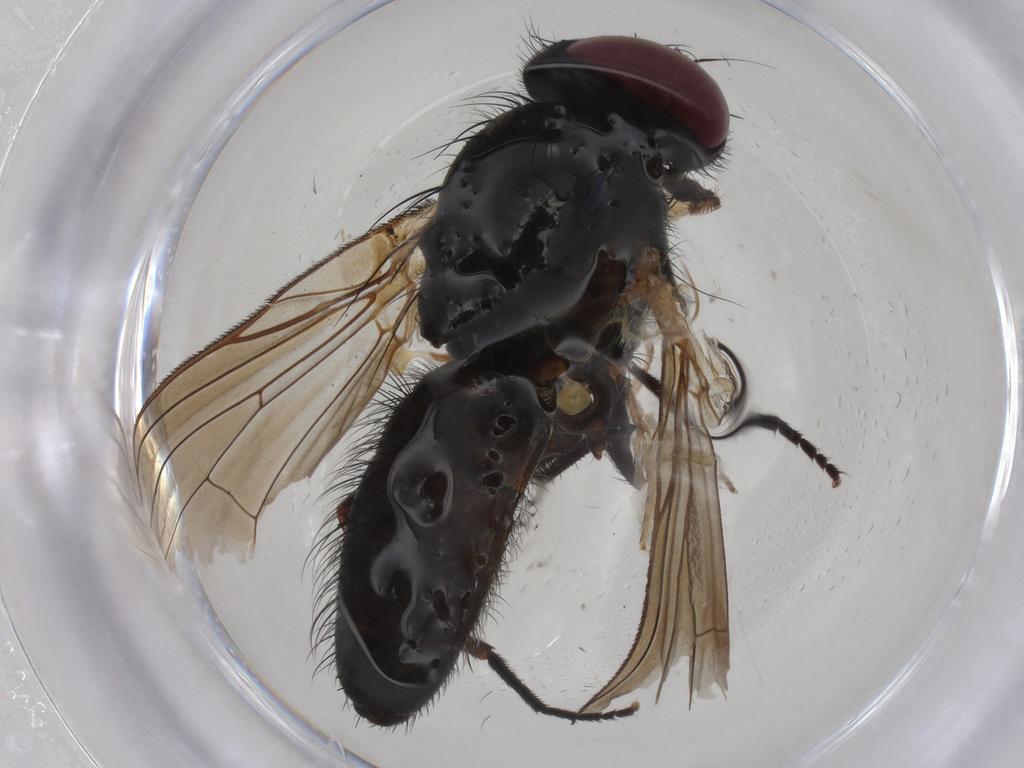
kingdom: Animalia
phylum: Arthropoda
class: Insecta
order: Diptera
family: Fanniidae
